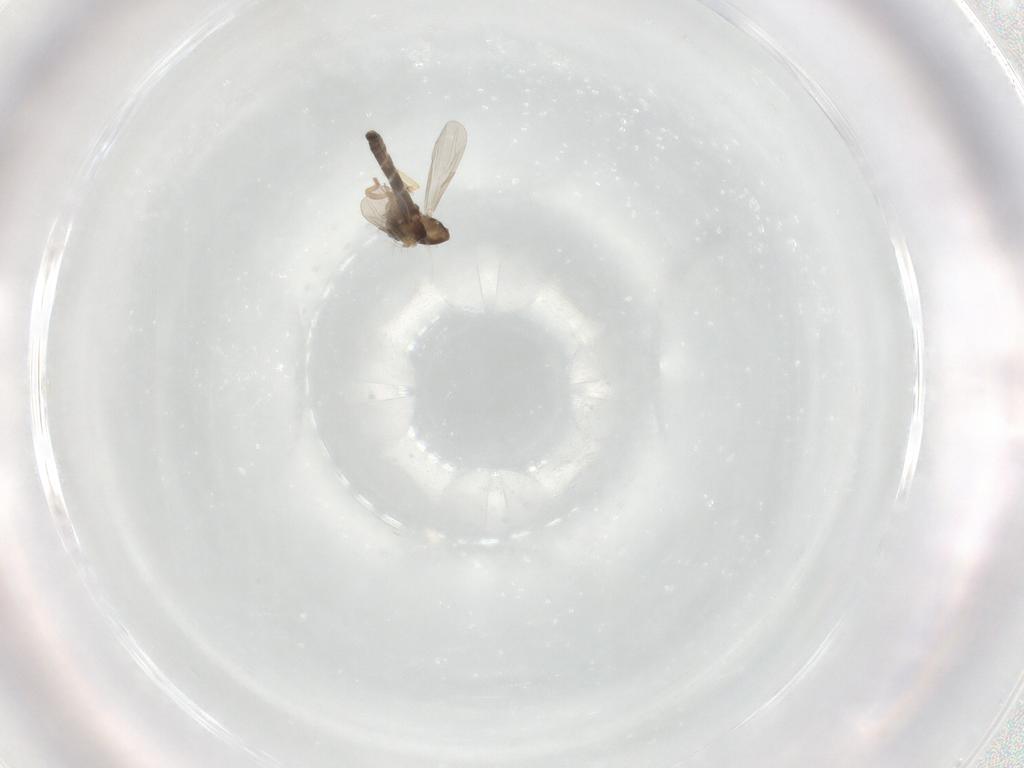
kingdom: Animalia
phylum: Arthropoda
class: Insecta
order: Diptera
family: Ceratopogonidae
